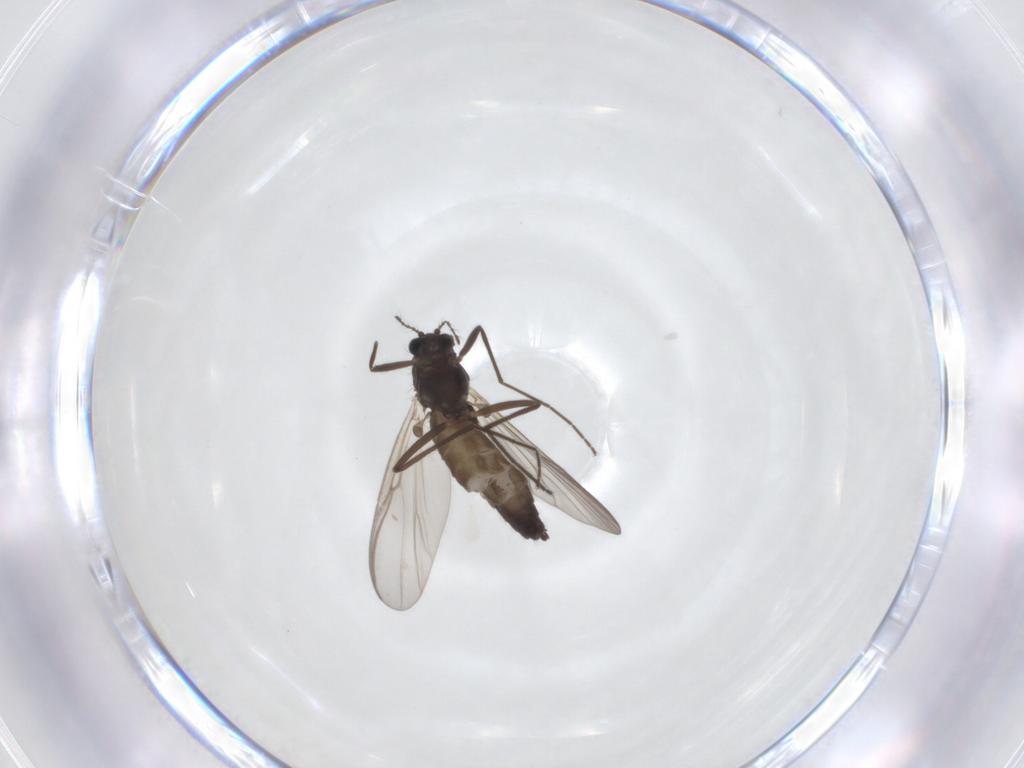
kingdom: Animalia
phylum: Arthropoda
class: Insecta
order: Diptera
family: Chironomidae
